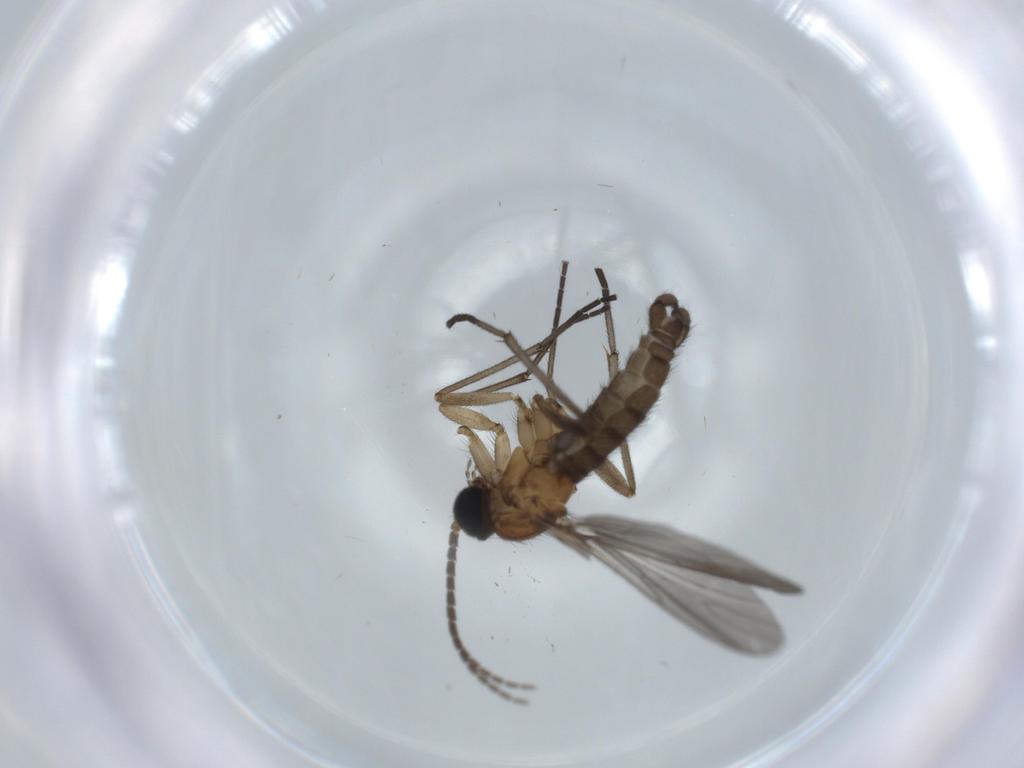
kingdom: Animalia
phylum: Arthropoda
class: Insecta
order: Diptera
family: Sciaridae
